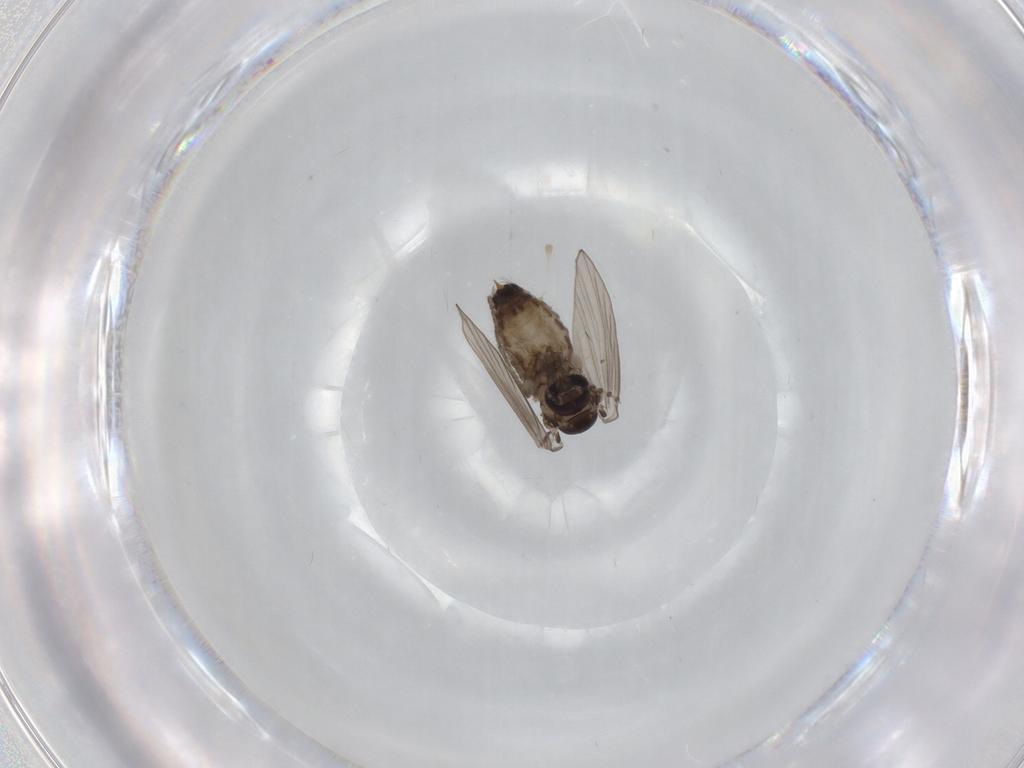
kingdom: Animalia
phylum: Arthropoda
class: Insecta
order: Diptera
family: Psychodidae
